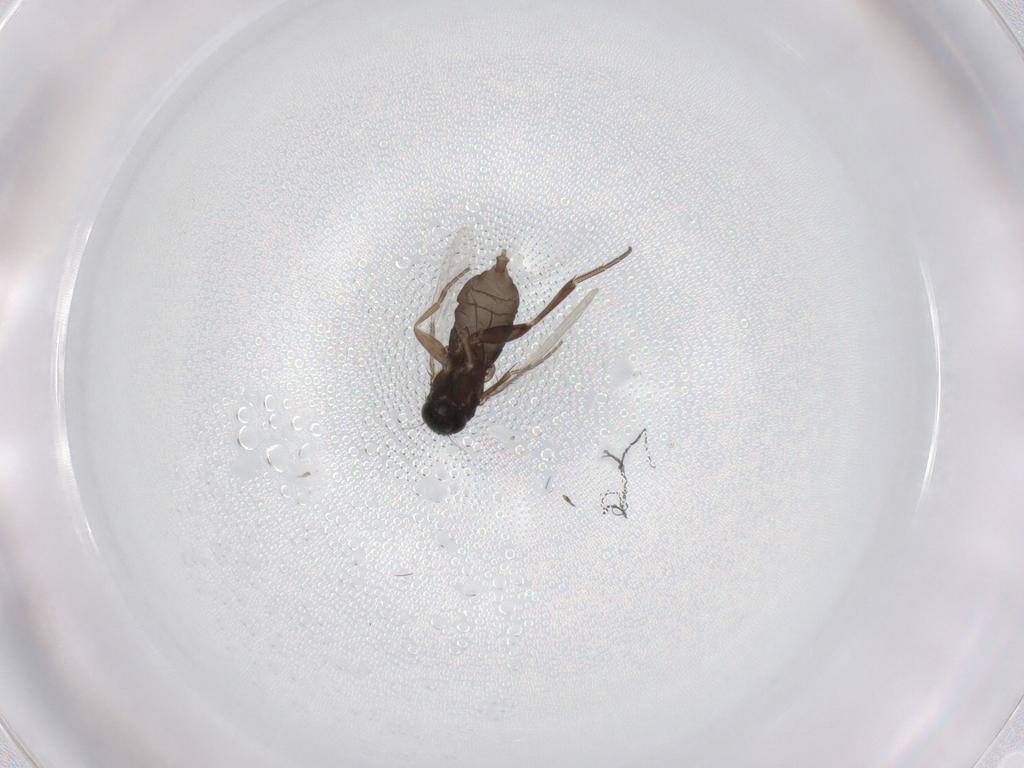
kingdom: Animalia
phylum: Arthropoda
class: Insecta
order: Diptera
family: Phoridae
